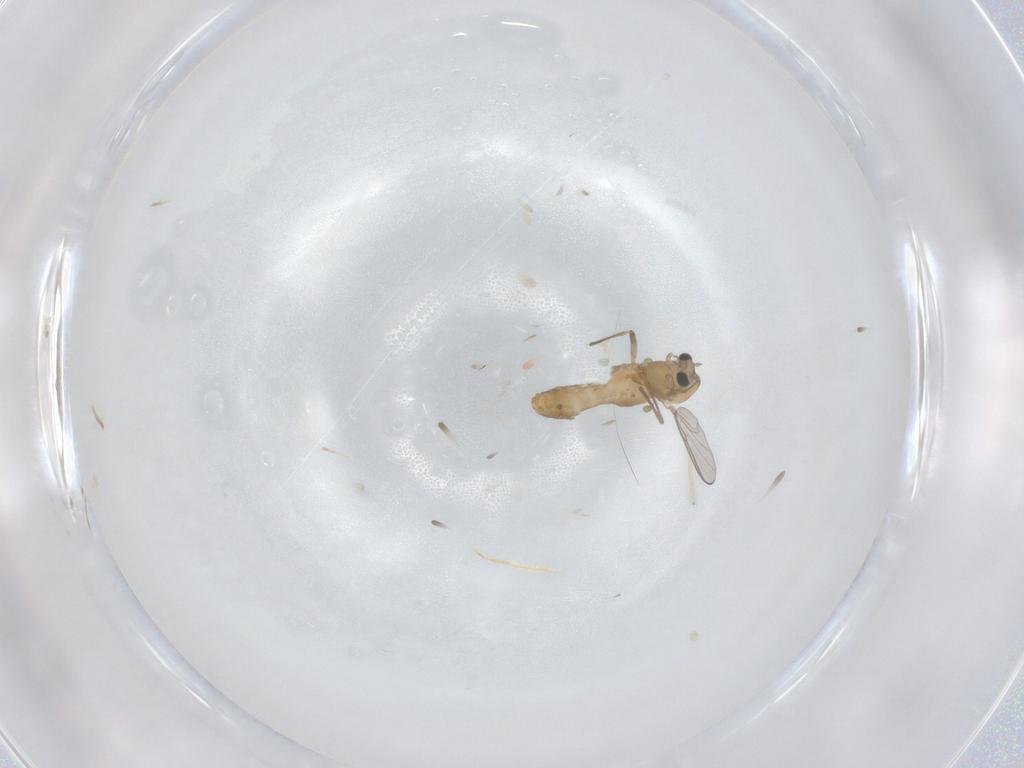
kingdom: Animalia
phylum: Arthropoda
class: Insecta
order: Diptera
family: Chironomidae
